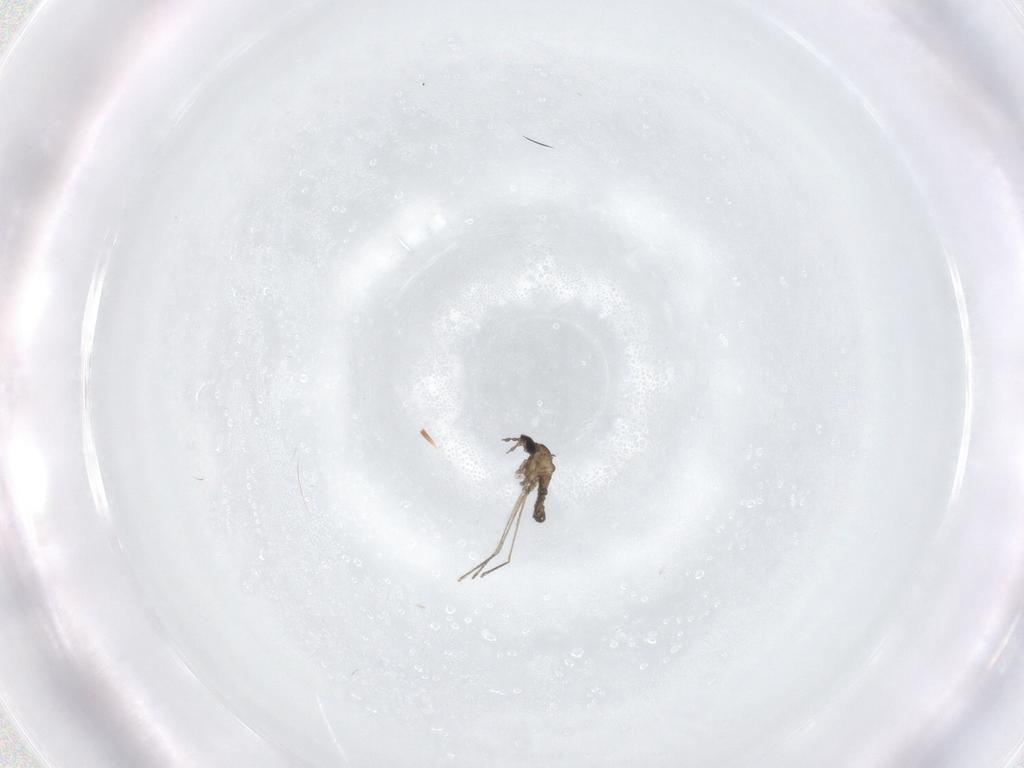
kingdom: Animalia
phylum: Arthropoda
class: Insecta
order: Diptera
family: Cecidomyiidae
